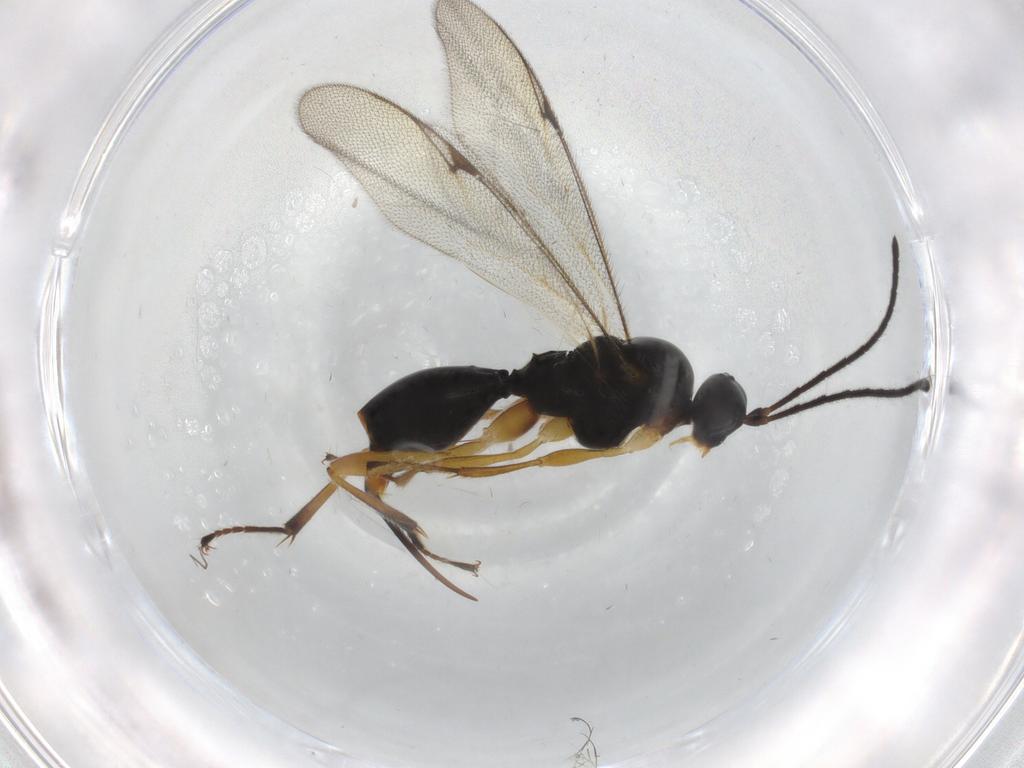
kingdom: Animalia
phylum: Arthropoda
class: Insecta
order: Hymenoptera
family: Proctotrupidae
